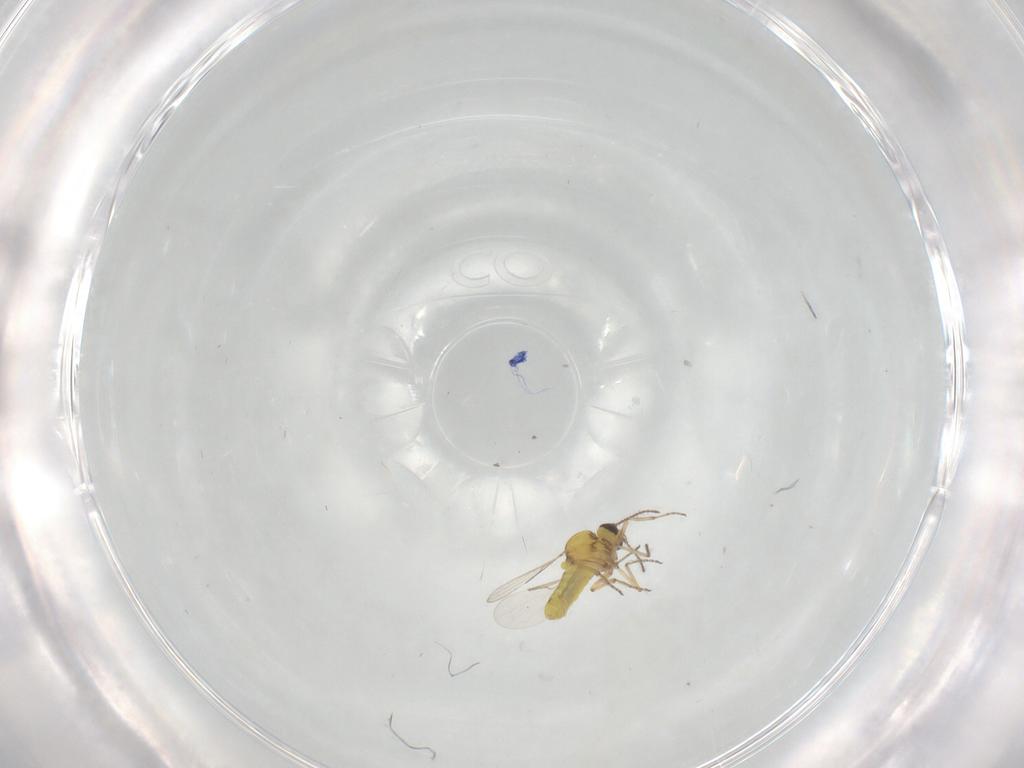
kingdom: Animalia
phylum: Arthropoda
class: Insecta
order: Diptera
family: Ceratopogonidae
